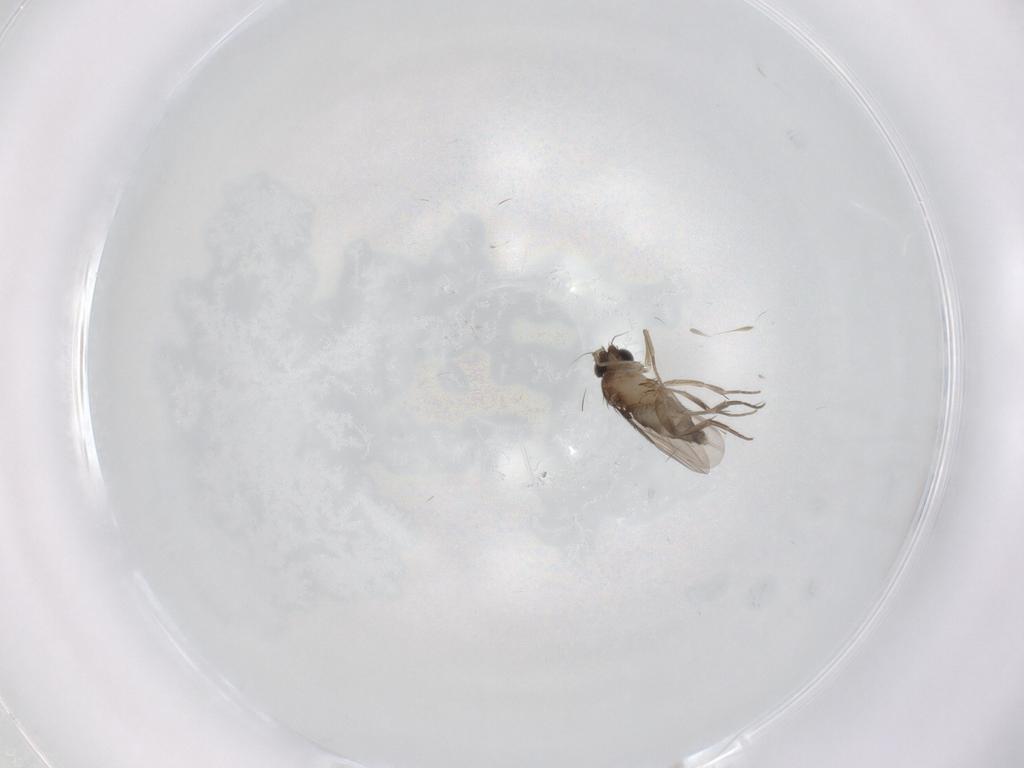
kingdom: Animalia
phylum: Arthropoda
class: Insecta
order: Diptera
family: Phoridae
